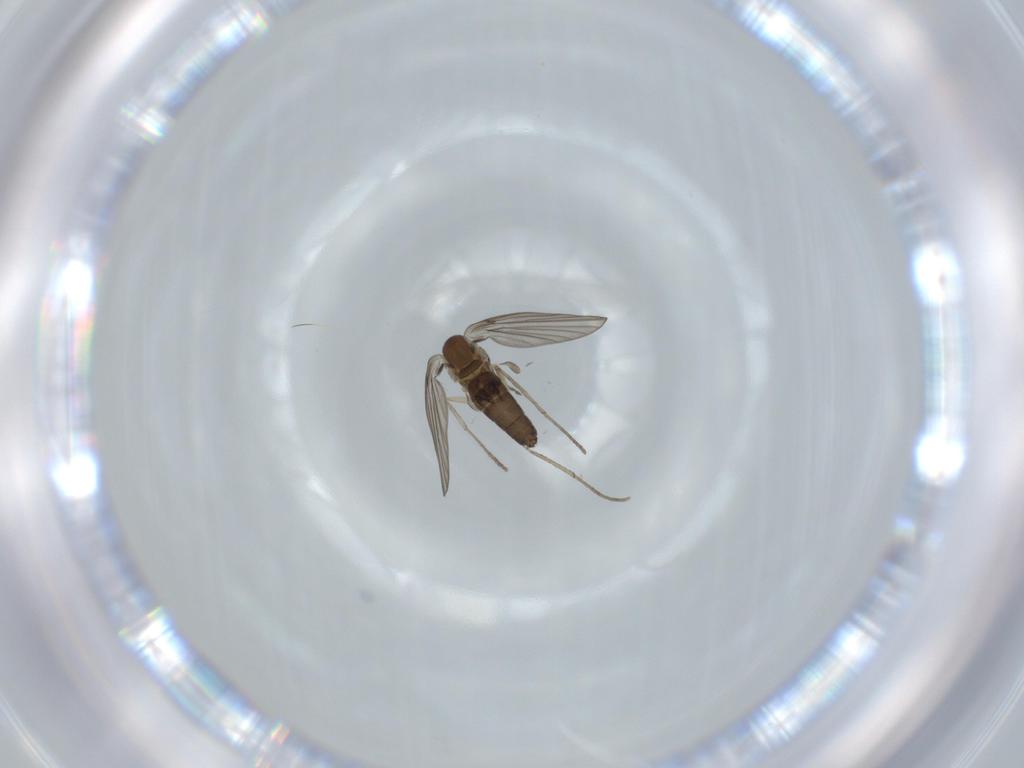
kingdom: Animalia
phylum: Arthropoda
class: Insecta
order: Diptera
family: Psychodidae
